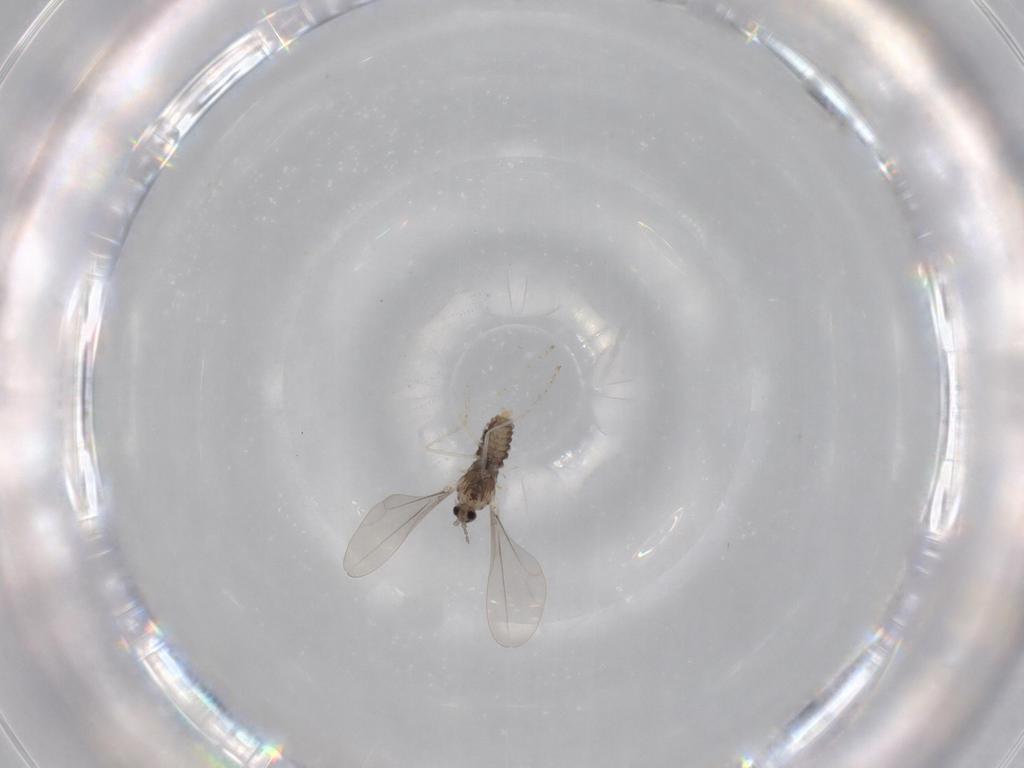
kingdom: Animalia
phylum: Arthropoda
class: Insecta
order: Diptera
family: Cecidomyiidae
